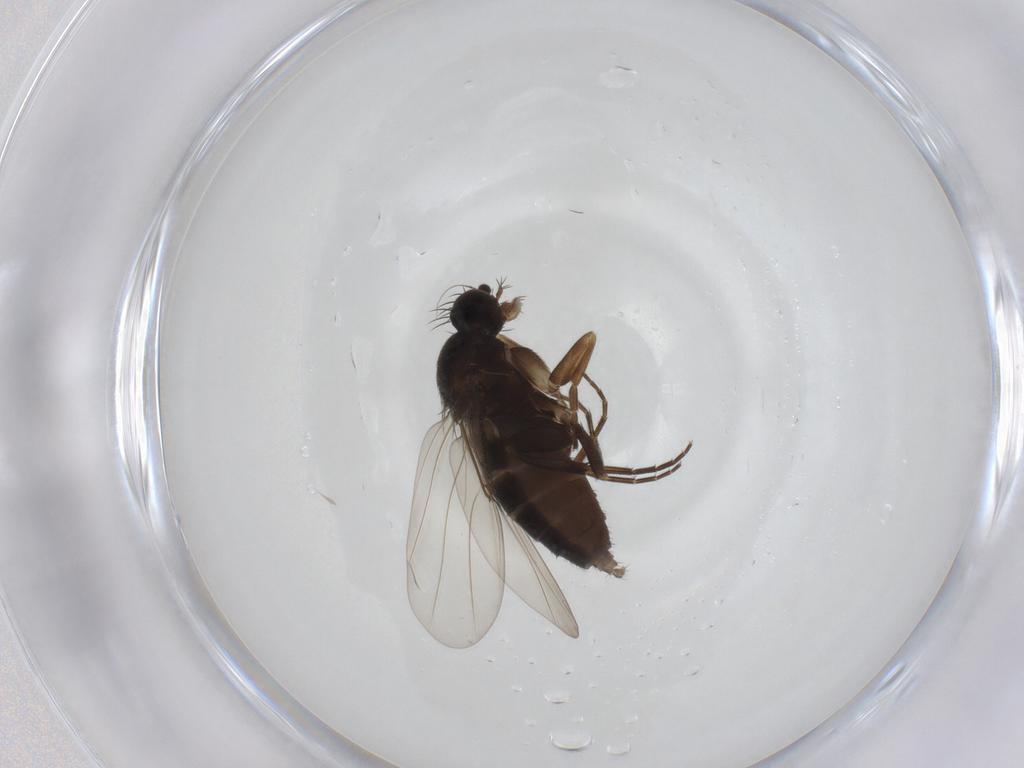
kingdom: Animalia
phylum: Arthropoda
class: Insecta
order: Diptera
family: Phoridae
